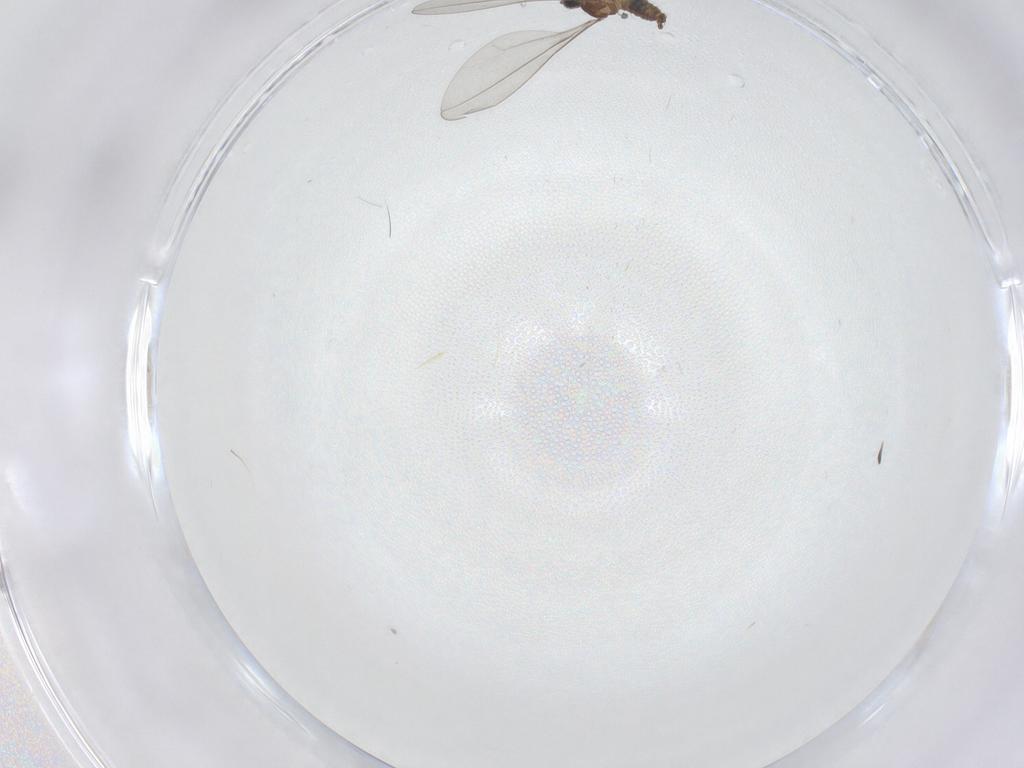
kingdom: Animalia
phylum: Arthropoda
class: Insecta
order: Diptera
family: Cecidomyiidae
